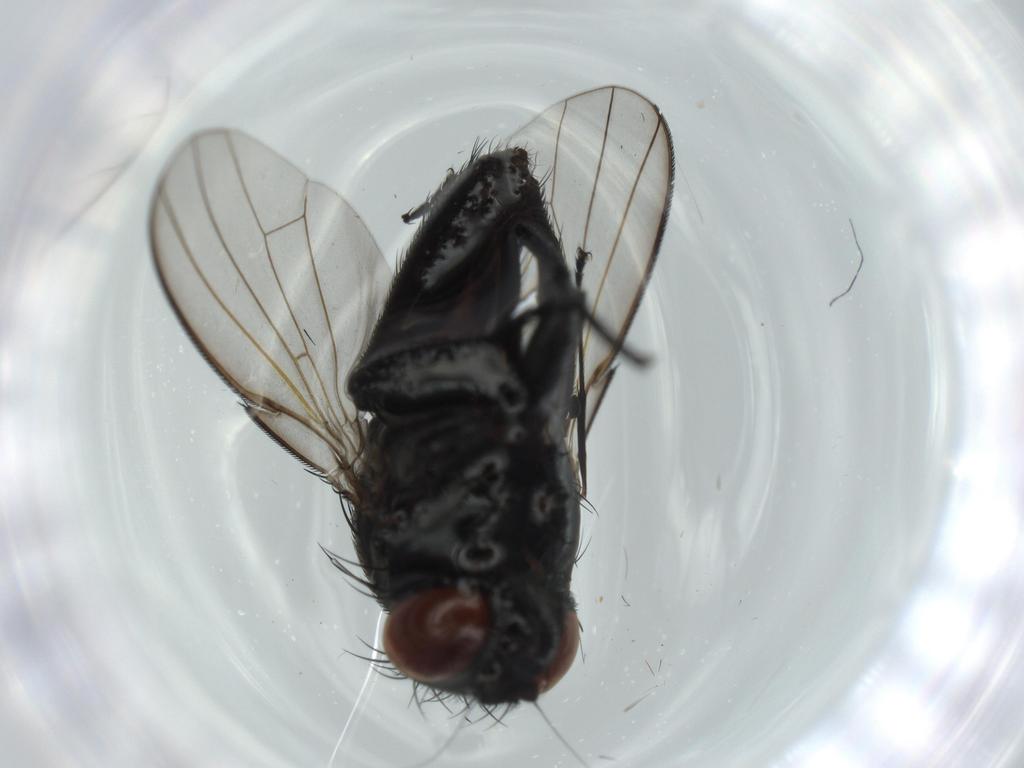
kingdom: Animalia
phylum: Arthropoda
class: Insecta
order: Diptera
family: Milichiidae
